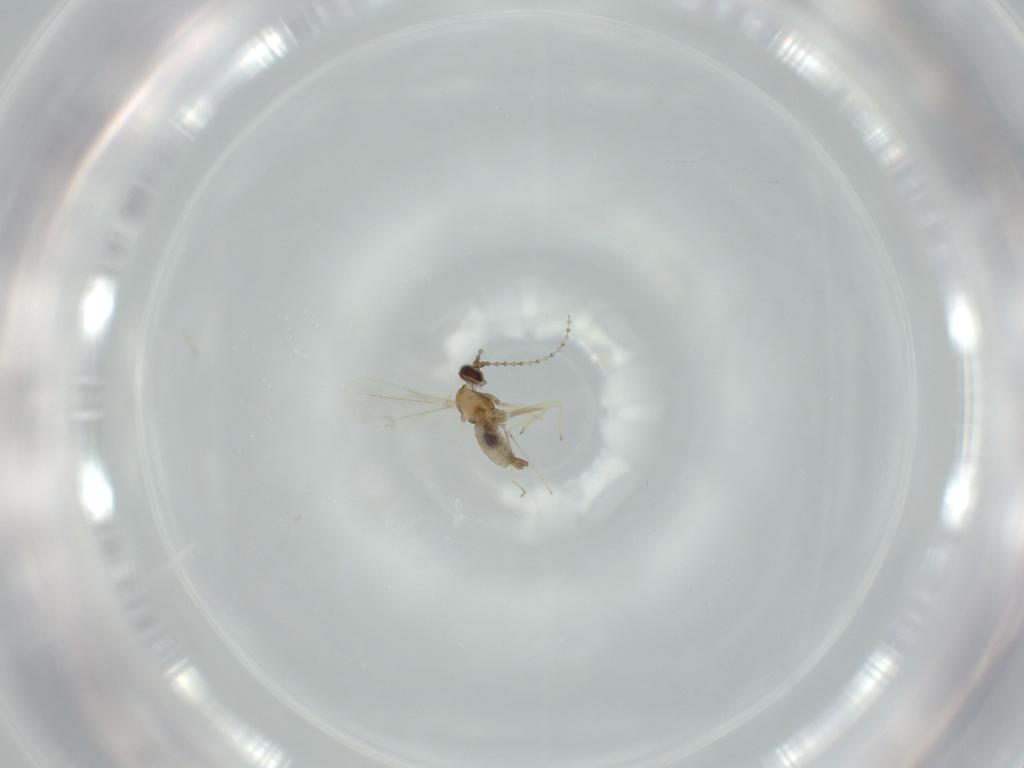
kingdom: Animalia
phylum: Arthropoda
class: Insecta
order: Diptera
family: Cecidomyiidae
